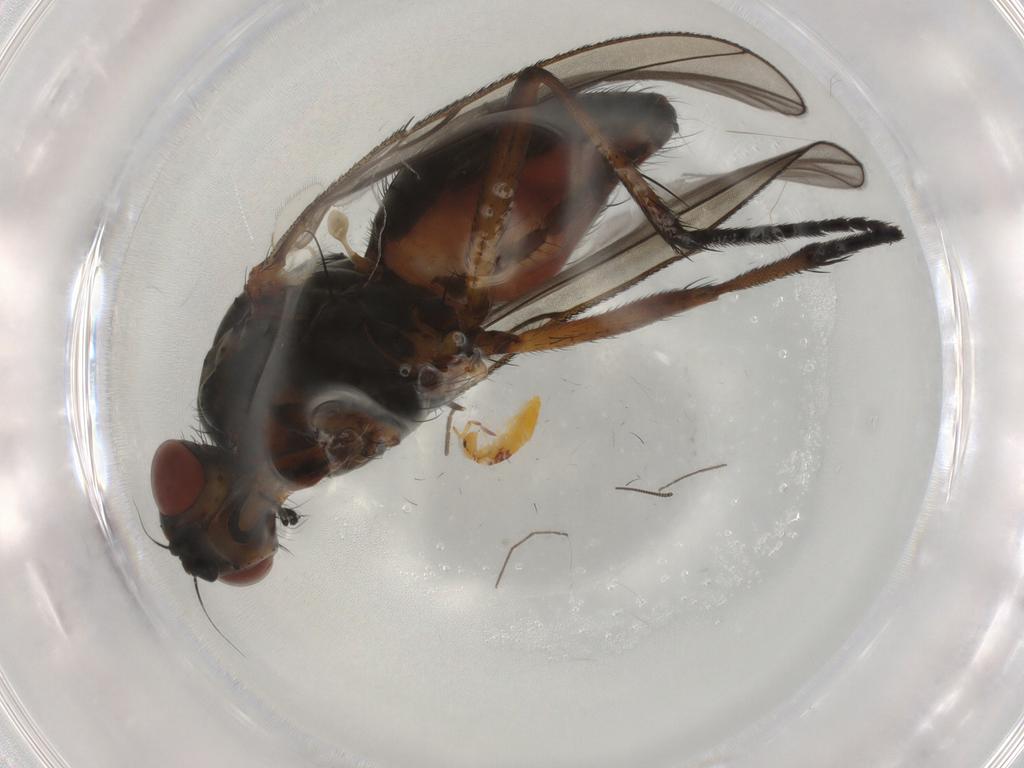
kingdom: Animalia
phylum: Arthropoda
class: Insecta
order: Diptera
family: Anthomyiidae
